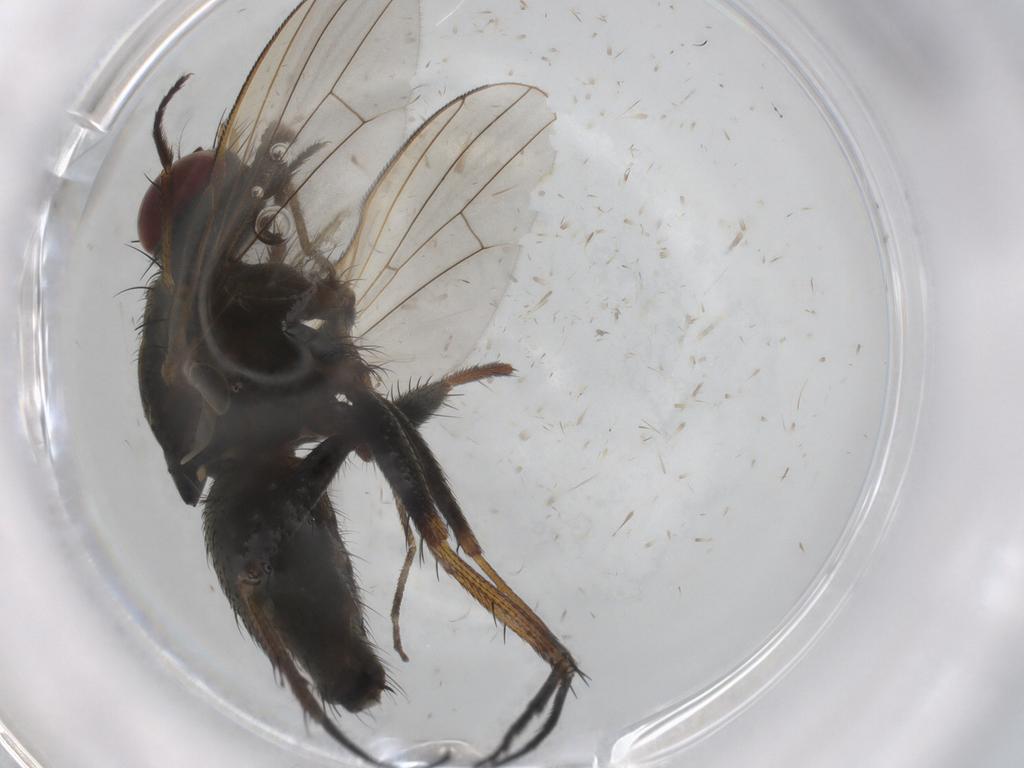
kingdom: Animalia
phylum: Arthropoda
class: Insecta
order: Diptera
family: Muscidae
